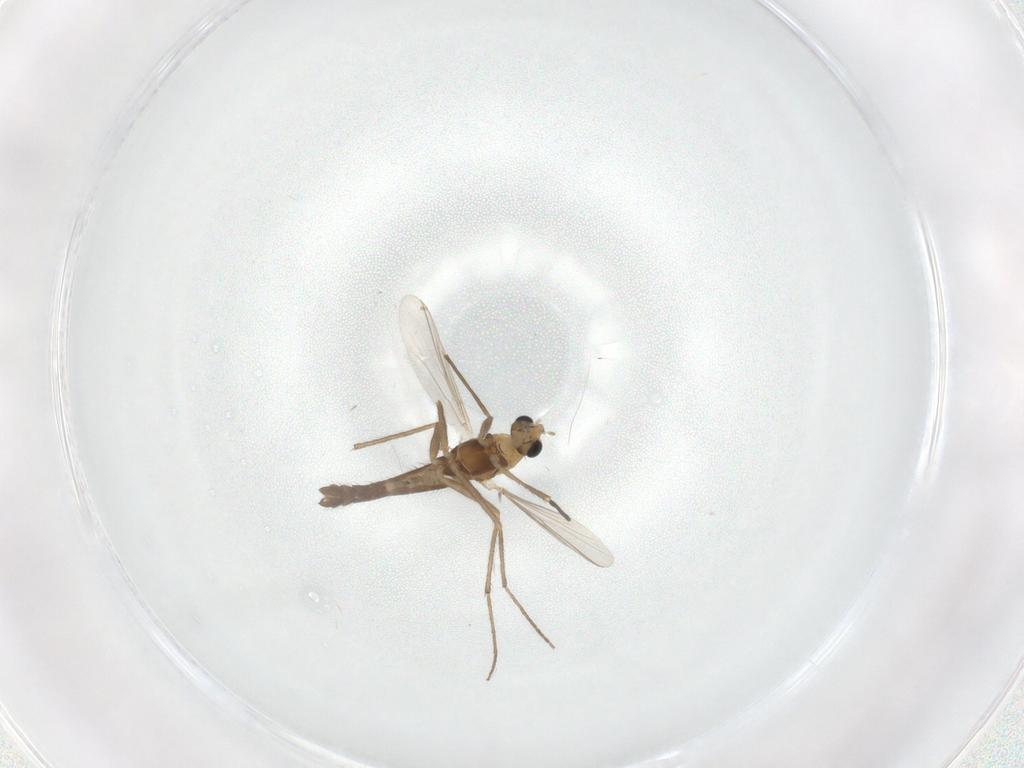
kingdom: Animalia
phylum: Arthropoda
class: Insecta
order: Diptera
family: Chironomidae
